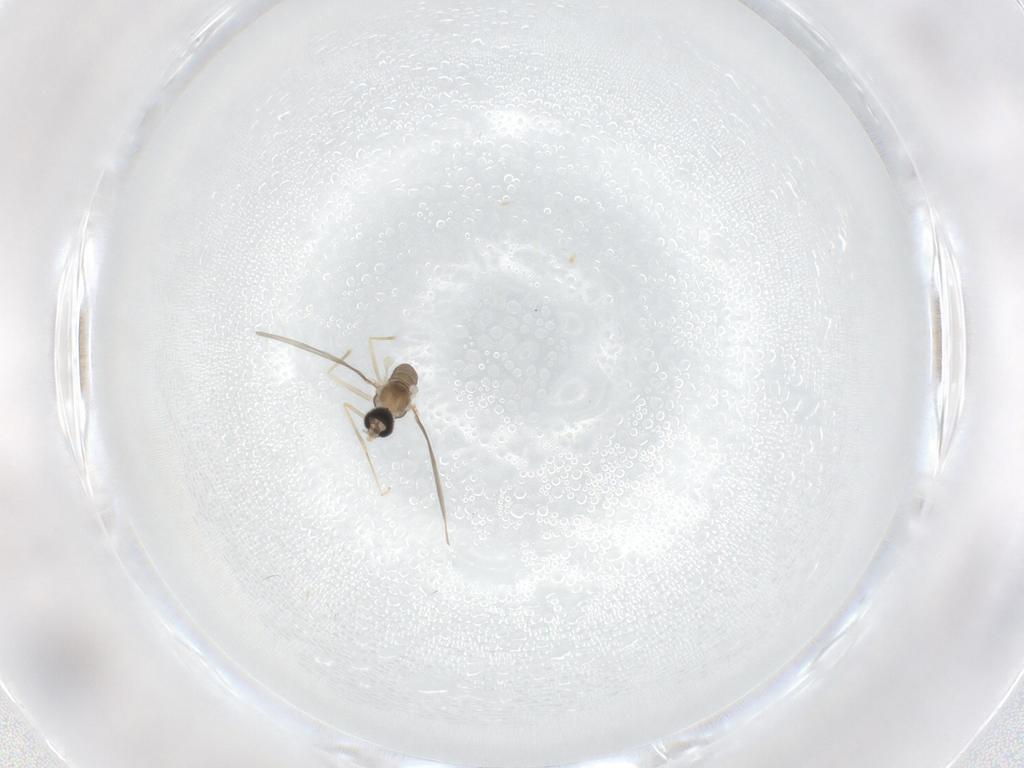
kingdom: Animalia
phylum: Arthropoda
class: Insecta
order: Diptera
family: Cecidomyiidae
